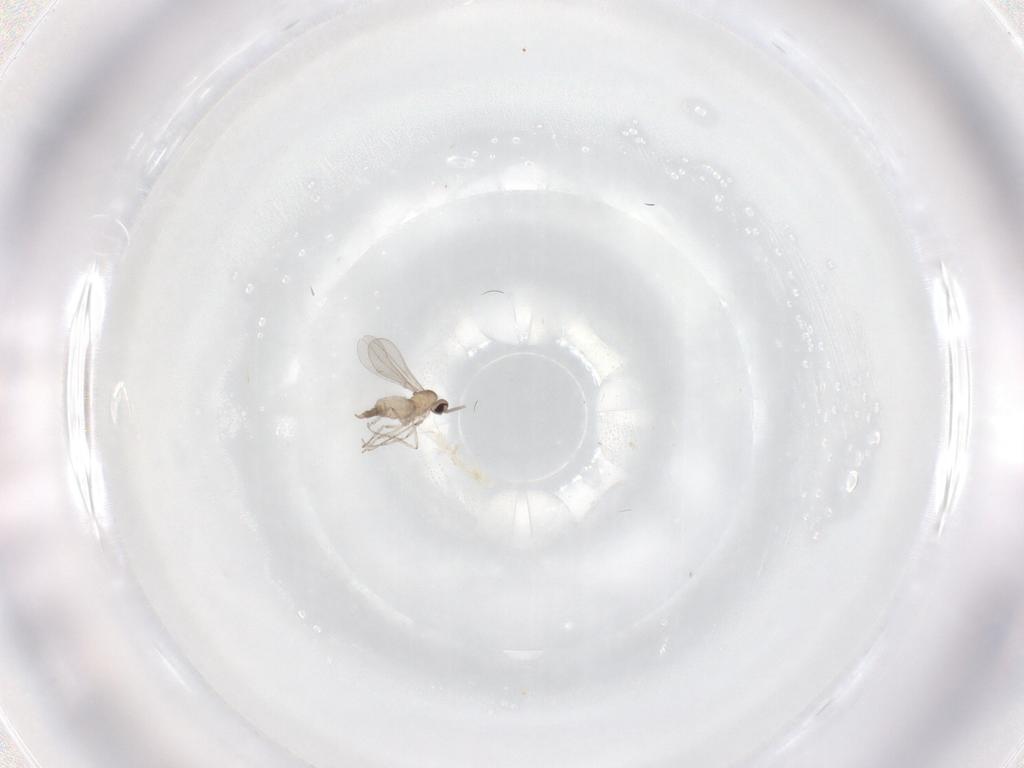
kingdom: Animalia
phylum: Arthropoda
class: Insecta
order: Diptera
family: Cecidomyiidae
